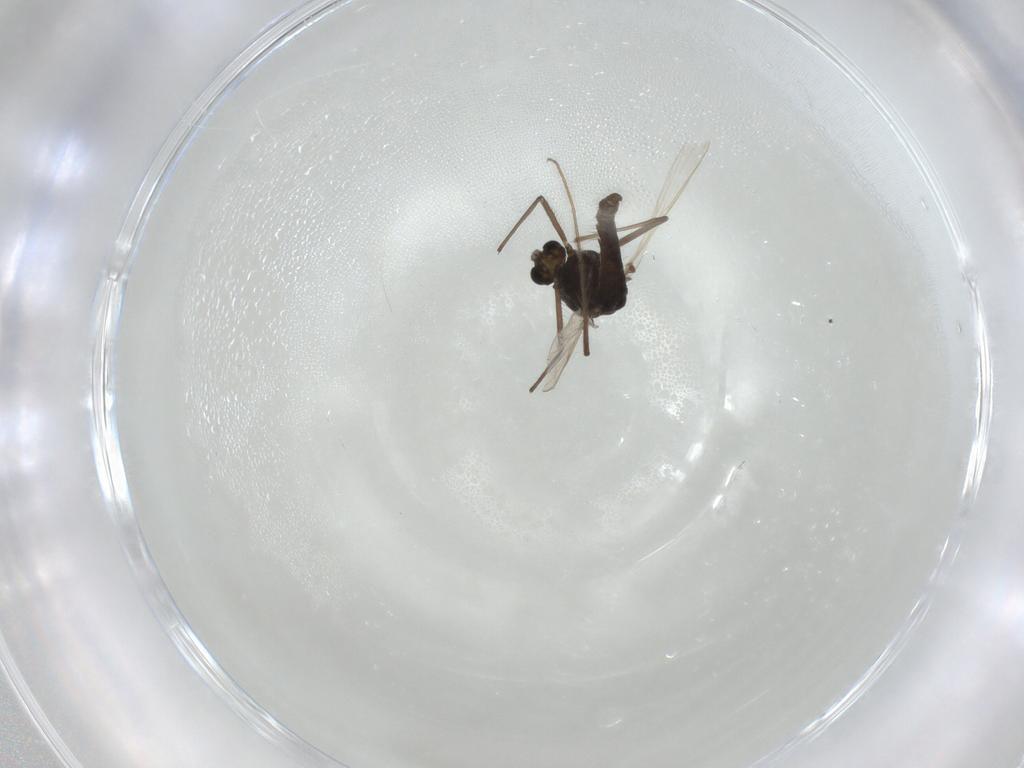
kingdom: Animalia
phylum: Arthropoda
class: Insecta
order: Diptera
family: Chironomidae
